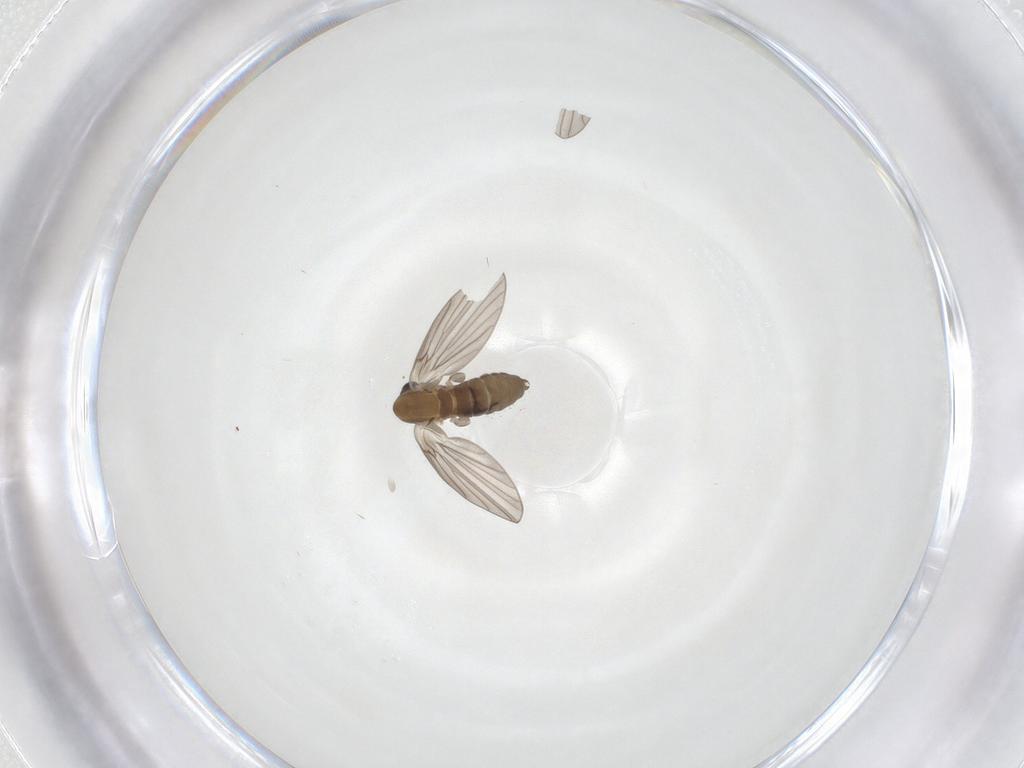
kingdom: Animalia
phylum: Arthropoda
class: Insecta
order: Diptera
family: Psychodidae
